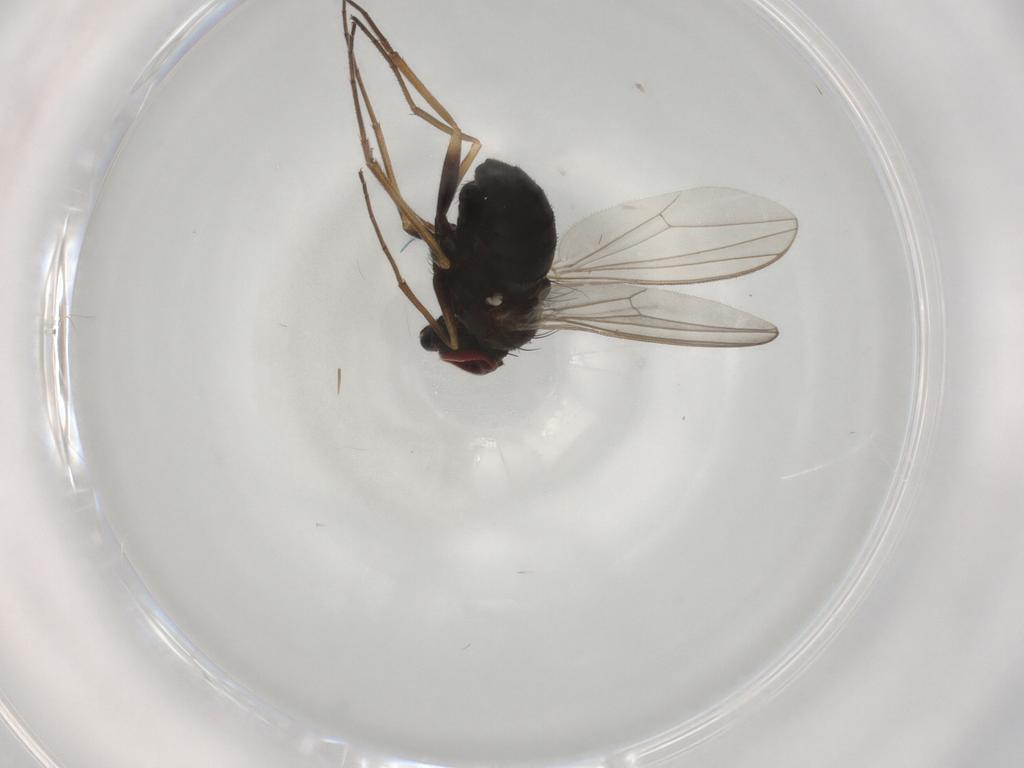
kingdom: Animalia
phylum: Arthropoda
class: Insecta
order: Diptera
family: Dolichopodidae
